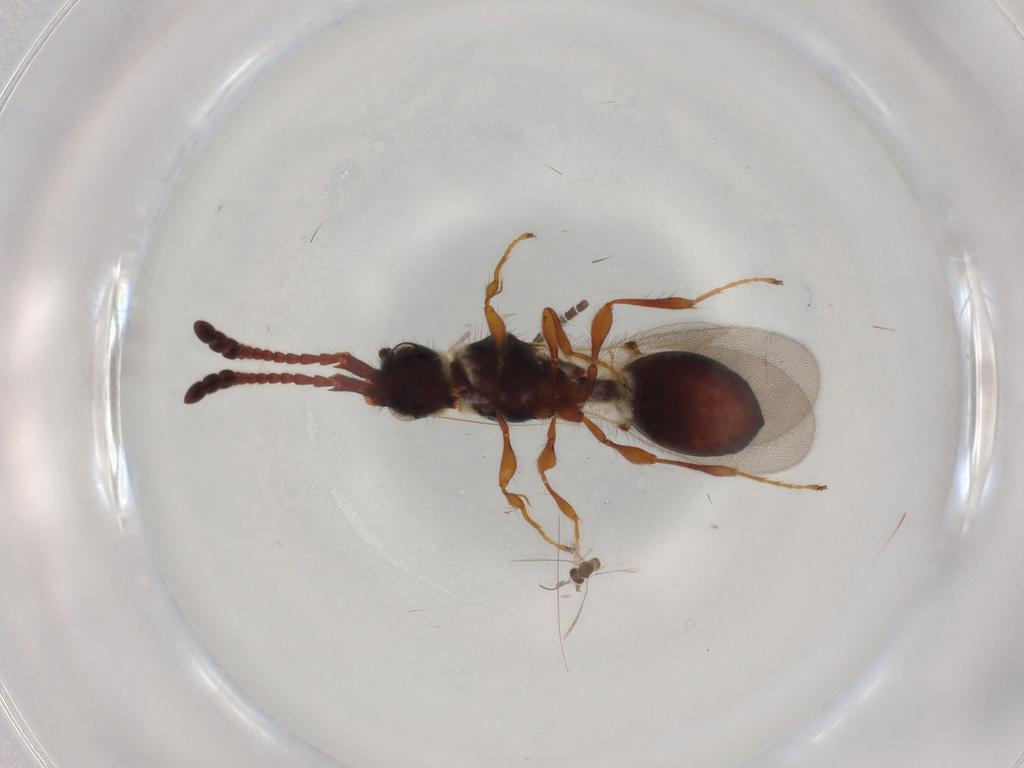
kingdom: Animalia
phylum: Arthropoda
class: Insecta
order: Hymenoptera
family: Diapriidae
